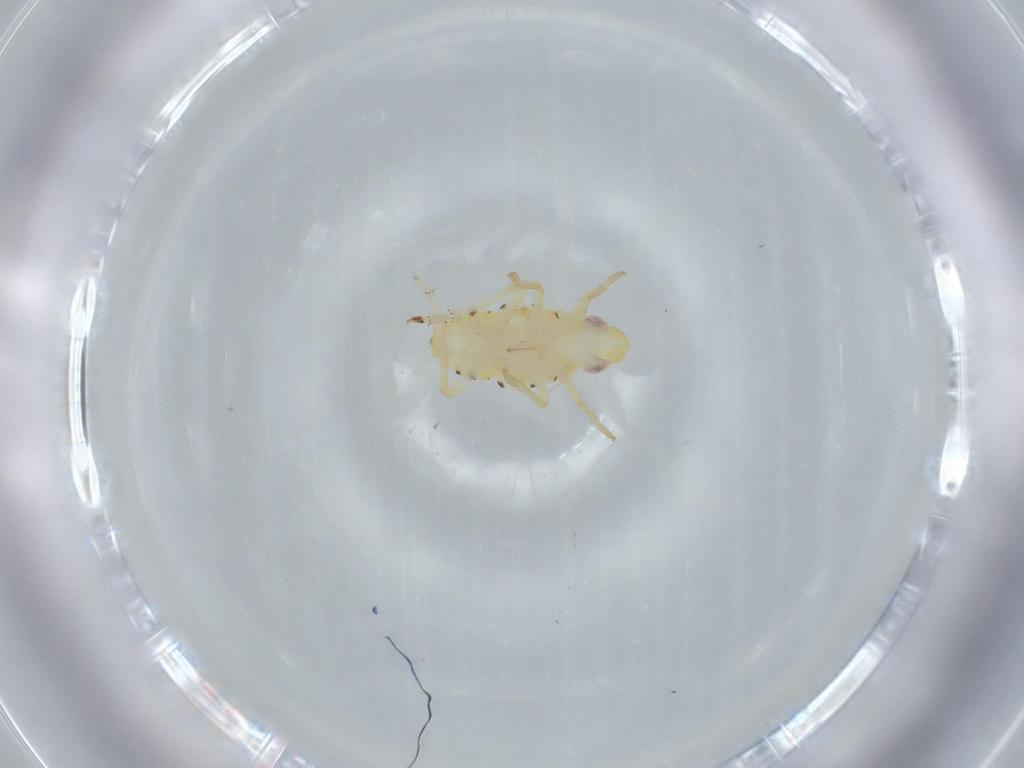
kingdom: Animalia
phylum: Arthropoda
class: Insecta
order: Hemiptera
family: Tropiduchidae
